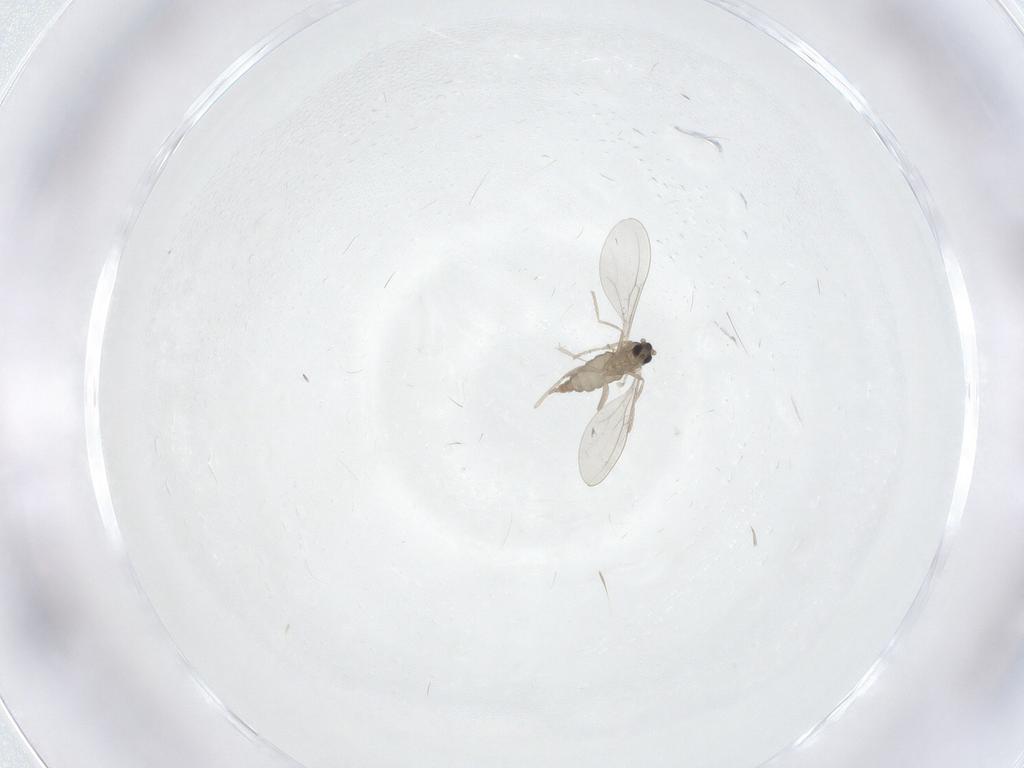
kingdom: Animalia
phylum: Arthropoda
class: Insecta
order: Diptera
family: Cecidomyiidae
